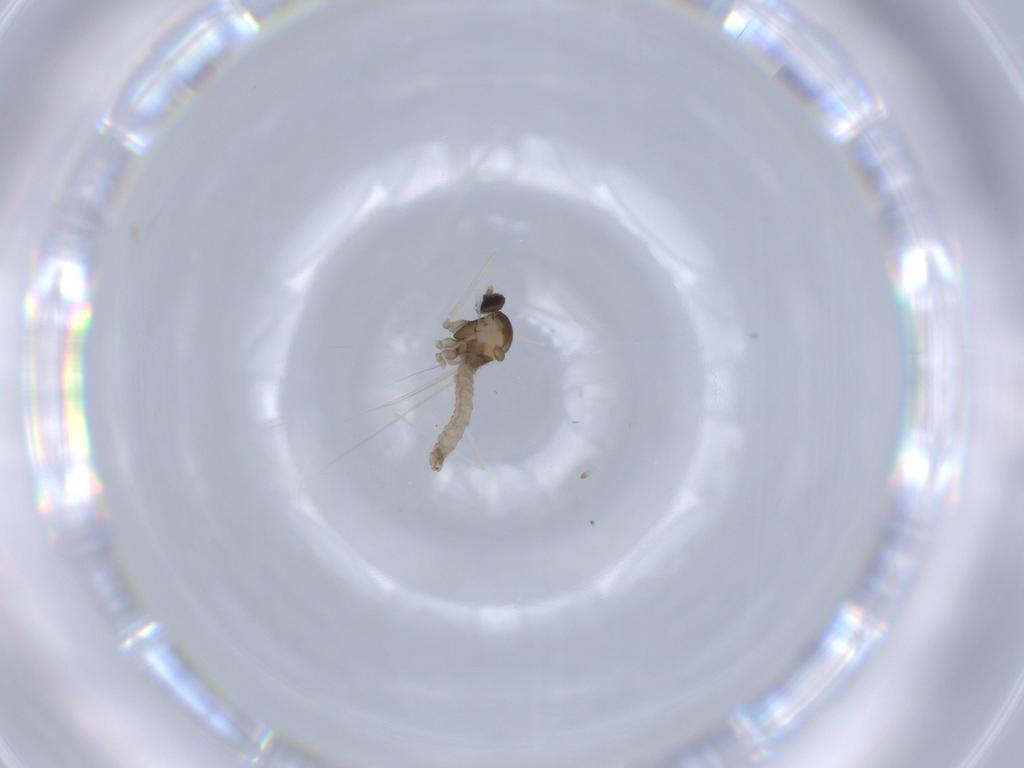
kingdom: Animalia
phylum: Arthropoda
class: Insecta
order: Diptera
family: Cecidomyiidae
